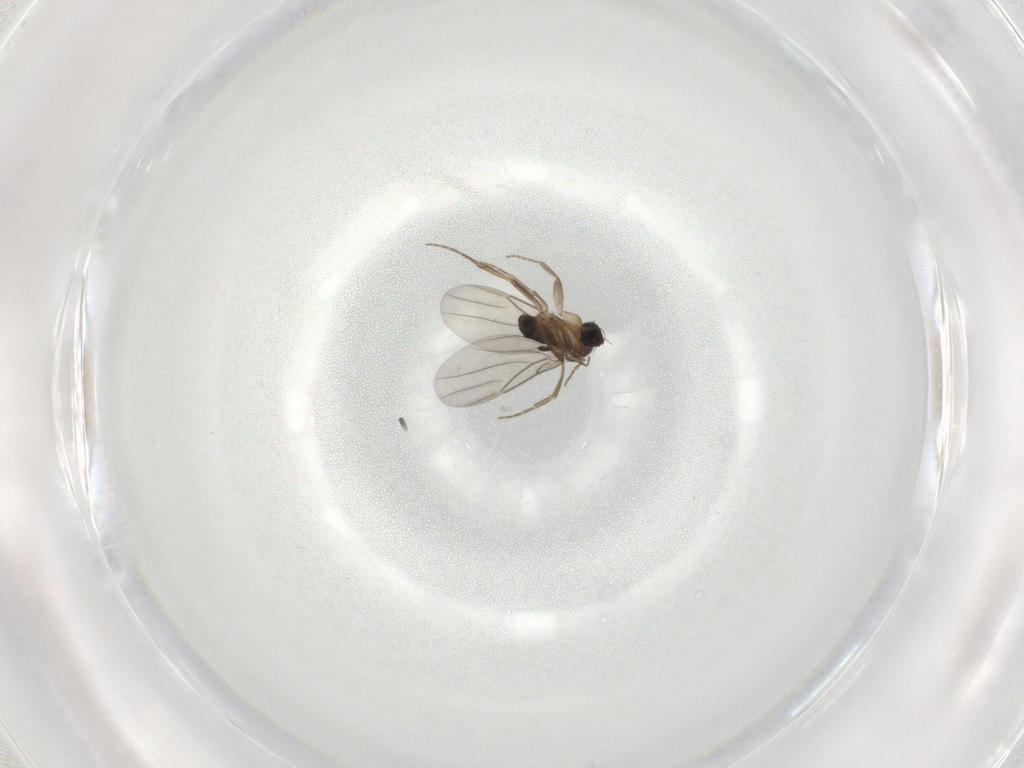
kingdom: Animalia
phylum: Arthropoda
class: Insecta
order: Diptera
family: Phoridae
